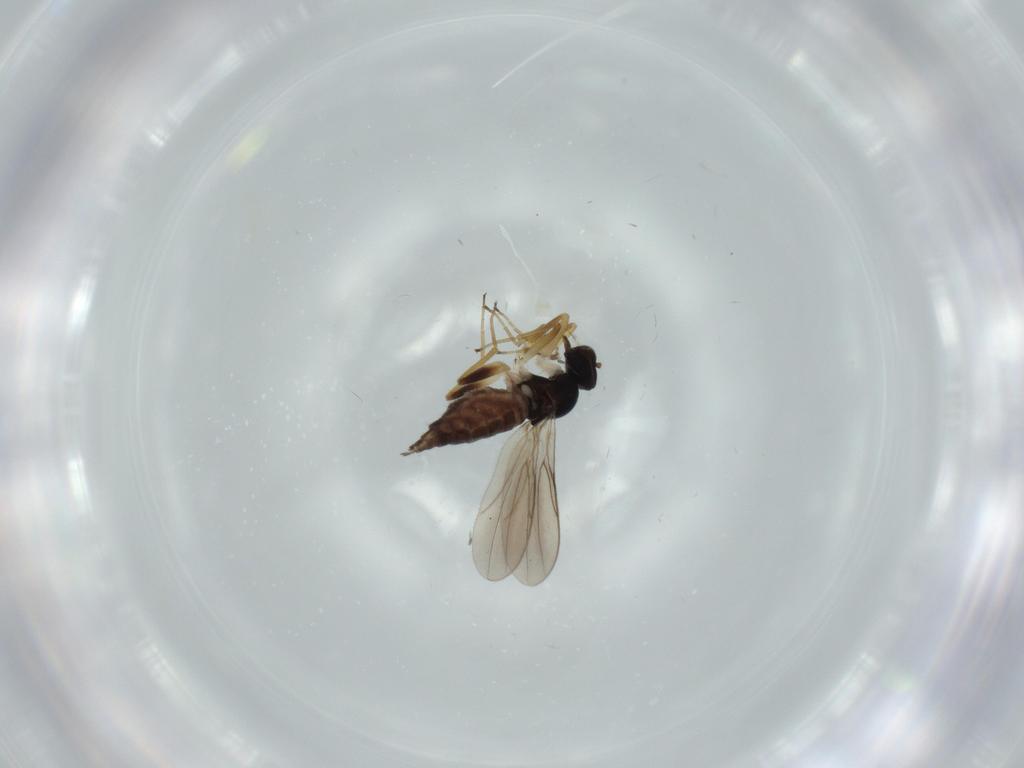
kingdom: Animalia
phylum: Arthropoda
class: Insecta
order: Diptera
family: Hybotidae
